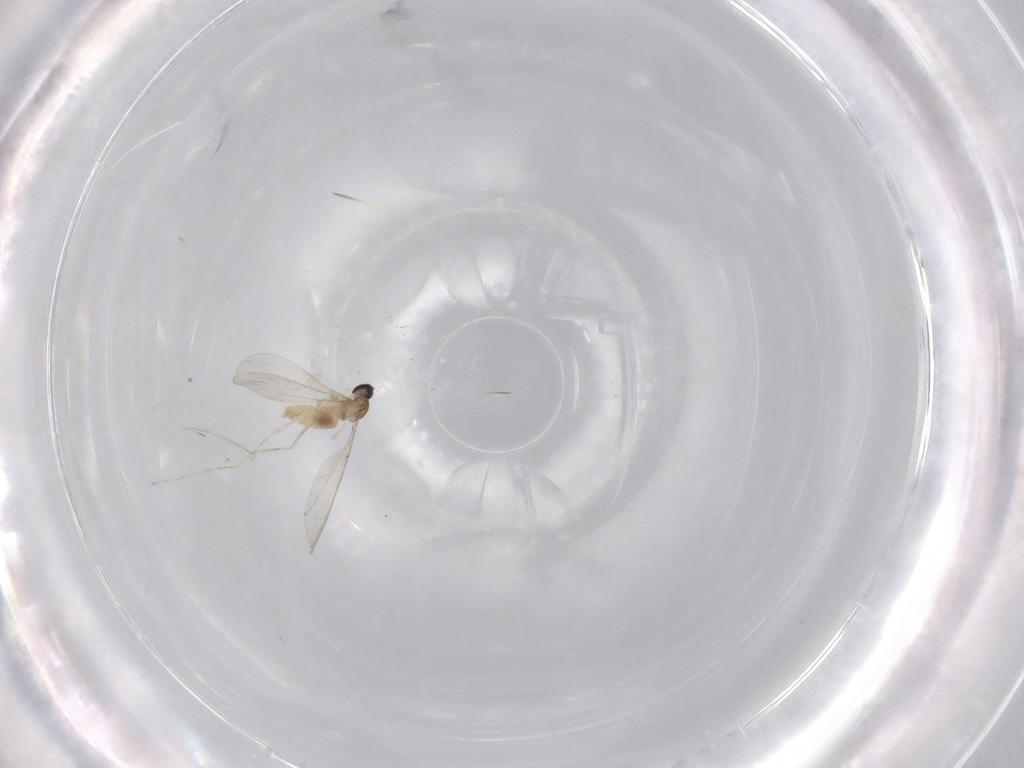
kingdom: Animalia
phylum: Arthropoda
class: Insecta
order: Diptera
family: Cecidomyiidae
